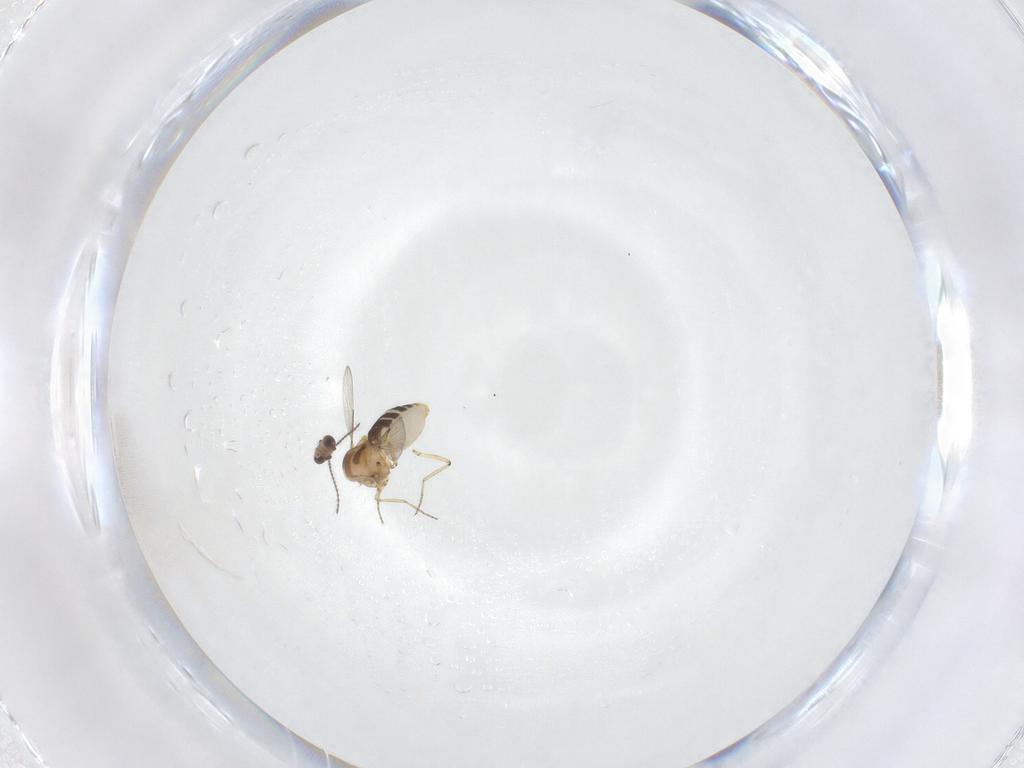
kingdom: Animalia
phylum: Arthropoda
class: Insecta
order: Diptera
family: Ceratopogonidae
